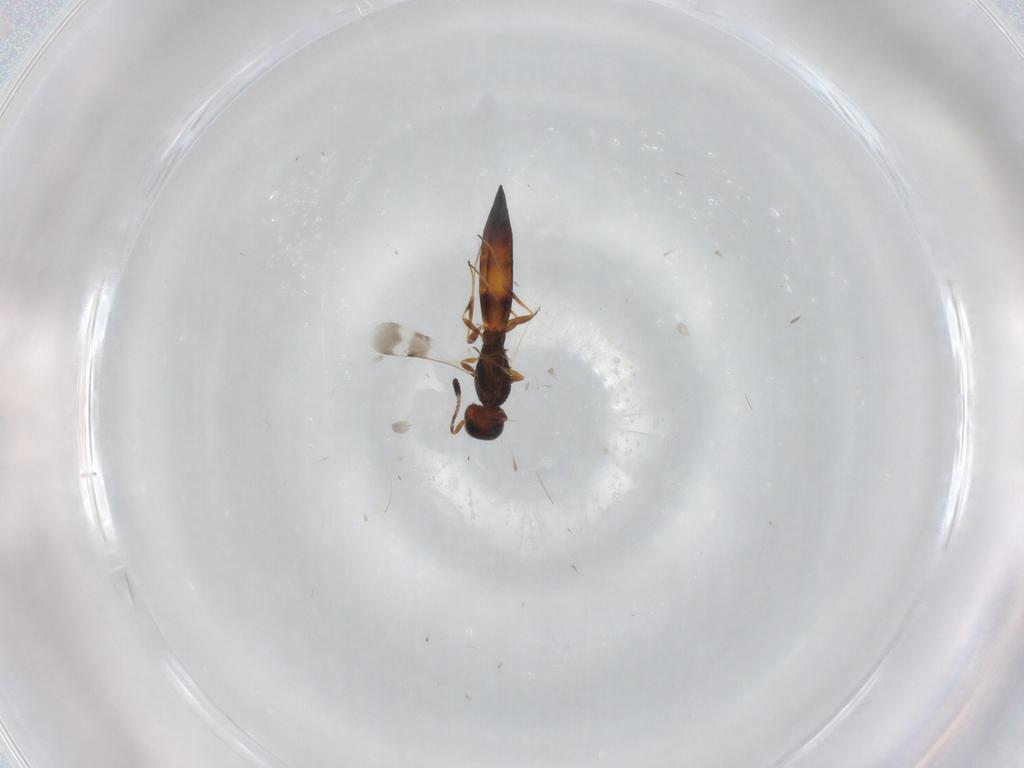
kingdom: Animalia
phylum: Arthropoda
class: Insecta
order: Hymenoptera
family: Scelionidae
